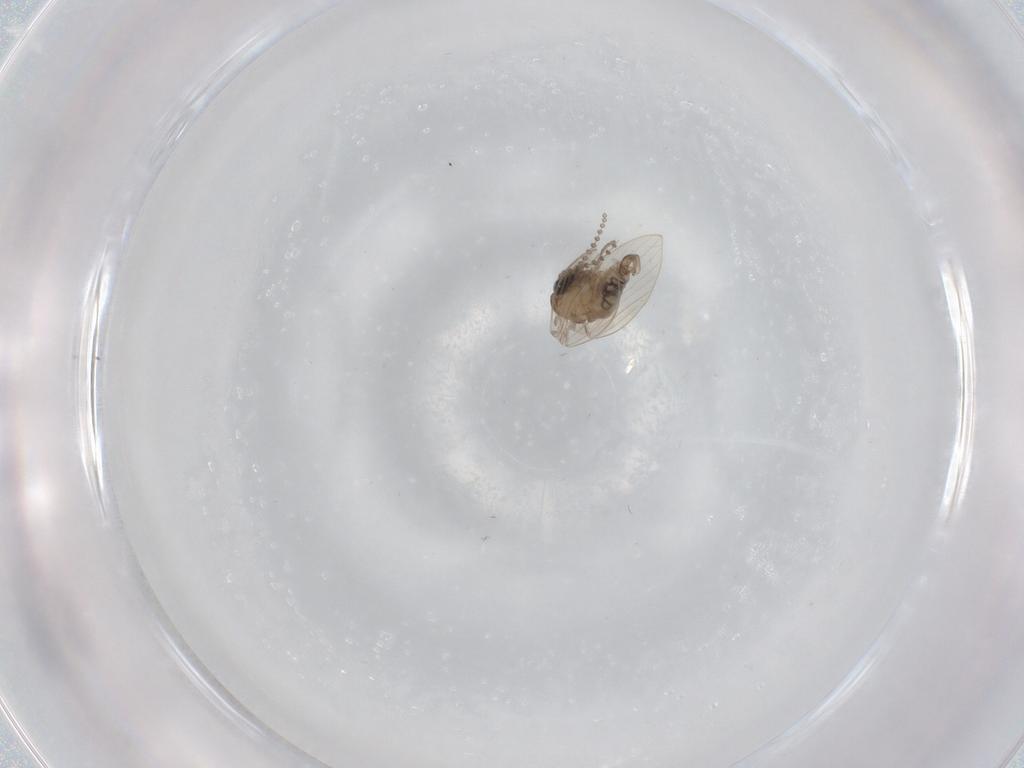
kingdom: Animalia
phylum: Arthropoda
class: Insecta
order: Diptera
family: Psychodidae
